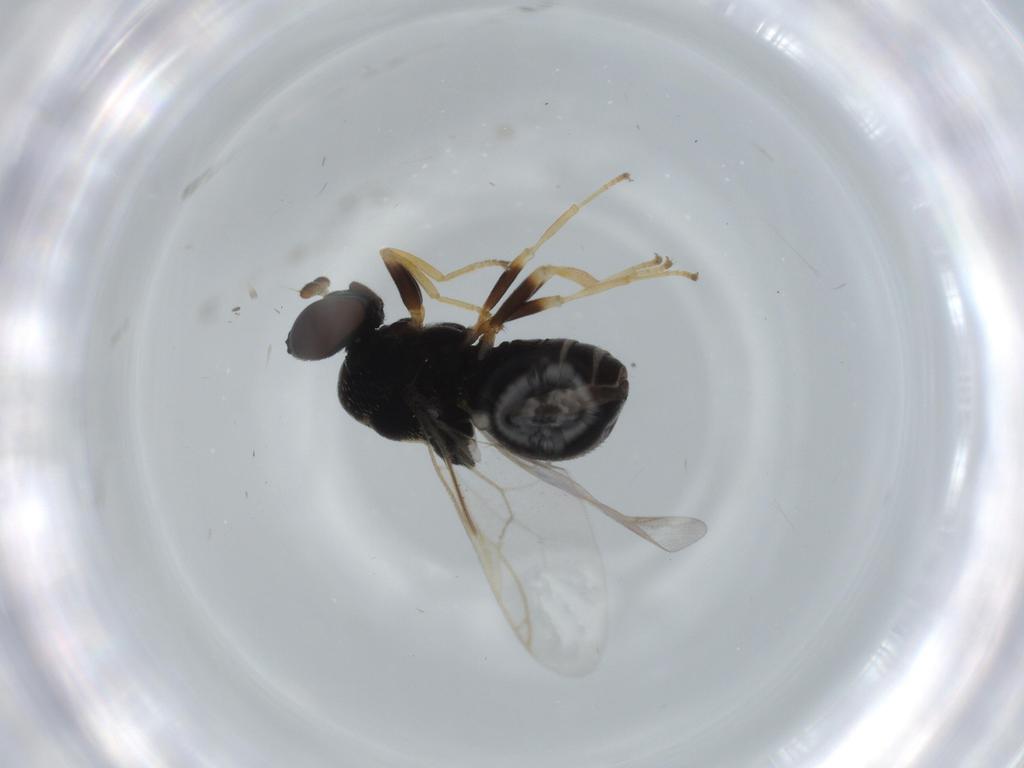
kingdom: Animalia
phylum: Arthropoda
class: Insecta
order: Diptera
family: Stratiomyidae
